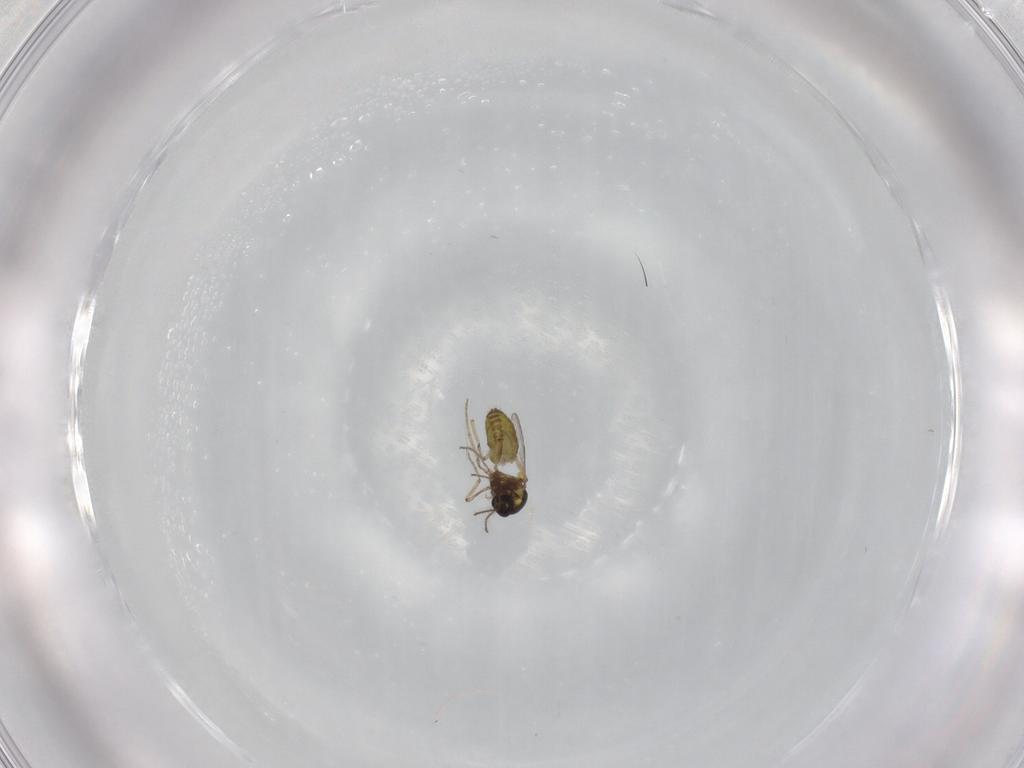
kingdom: Animalia
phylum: Arthropoda
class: Insecta
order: Diptera
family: Ceratopogonidae
